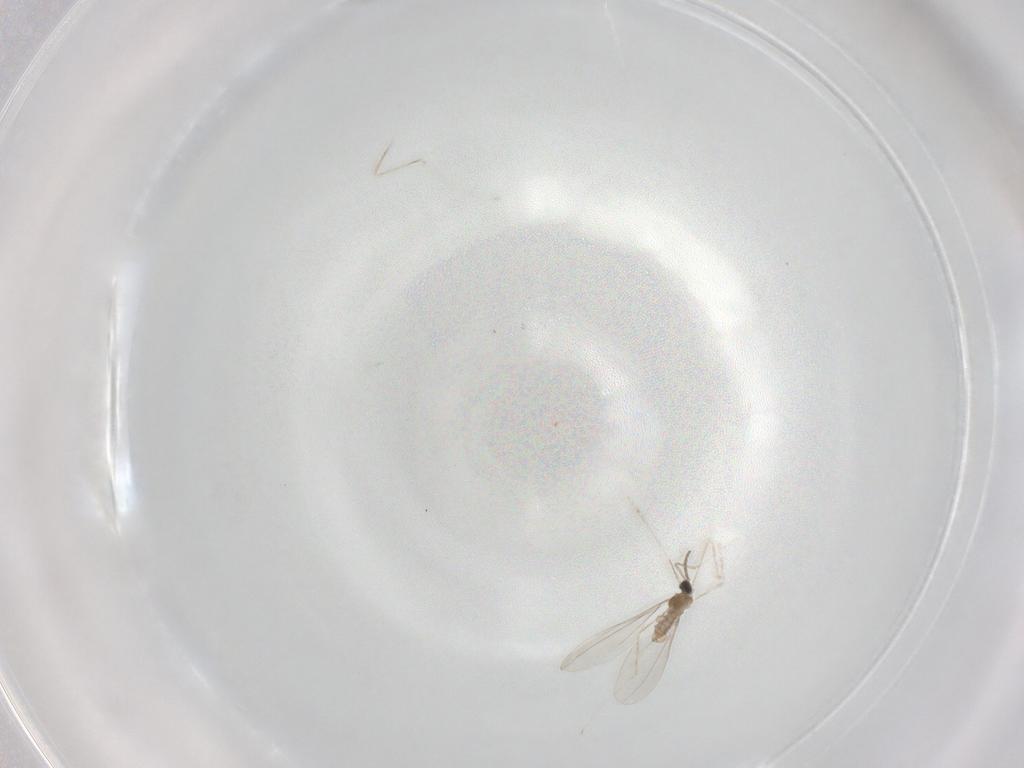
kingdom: Animalia
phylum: Arthropoda
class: Insecta
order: Diptera
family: Cecidomyiidae
